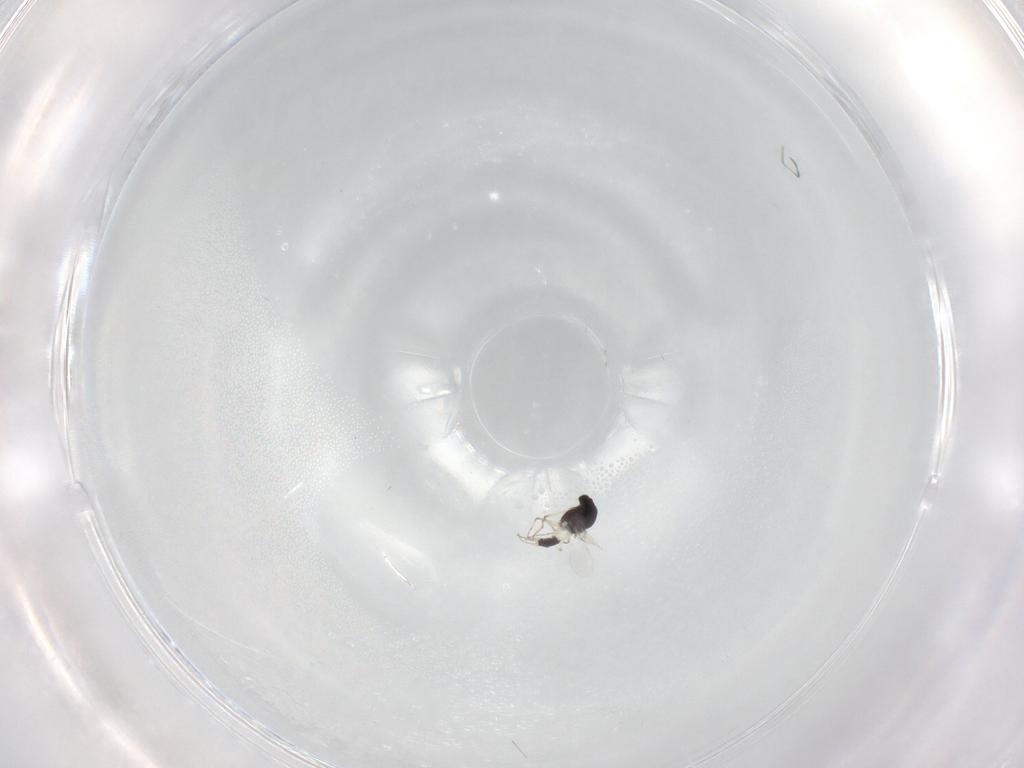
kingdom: Animalia
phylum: Arthropoda
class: Insecta
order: Diptera
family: Chironomidae
